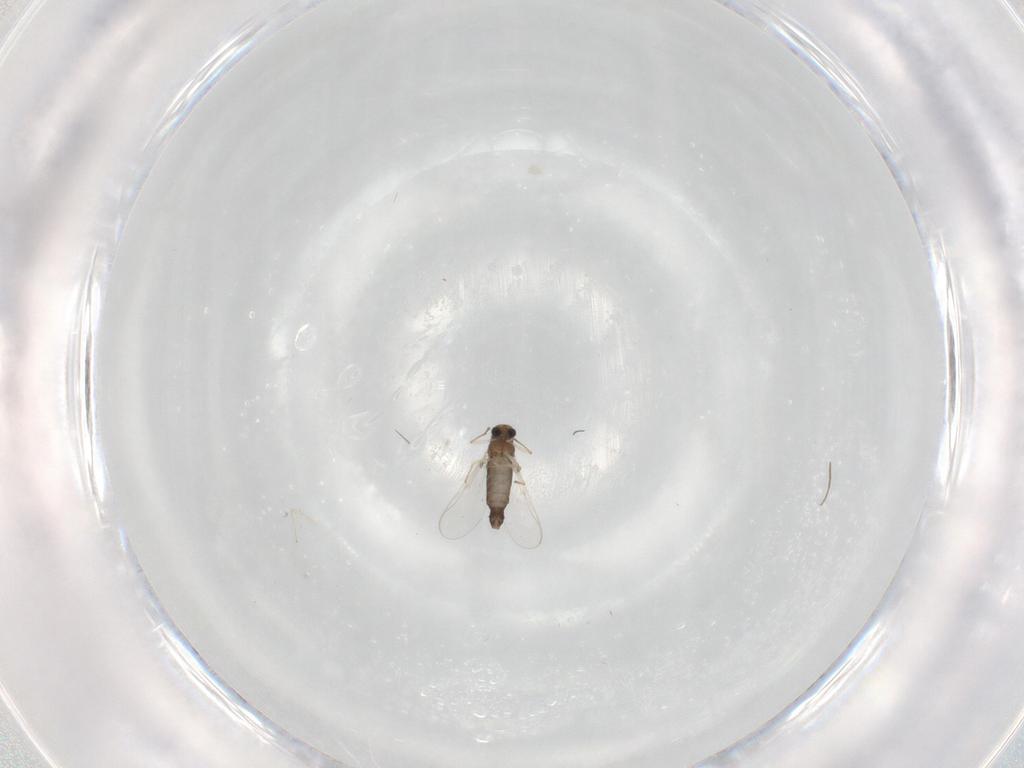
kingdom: Animalia
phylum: Arthropoda
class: Insecta
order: Diptera
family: Chironomidae
